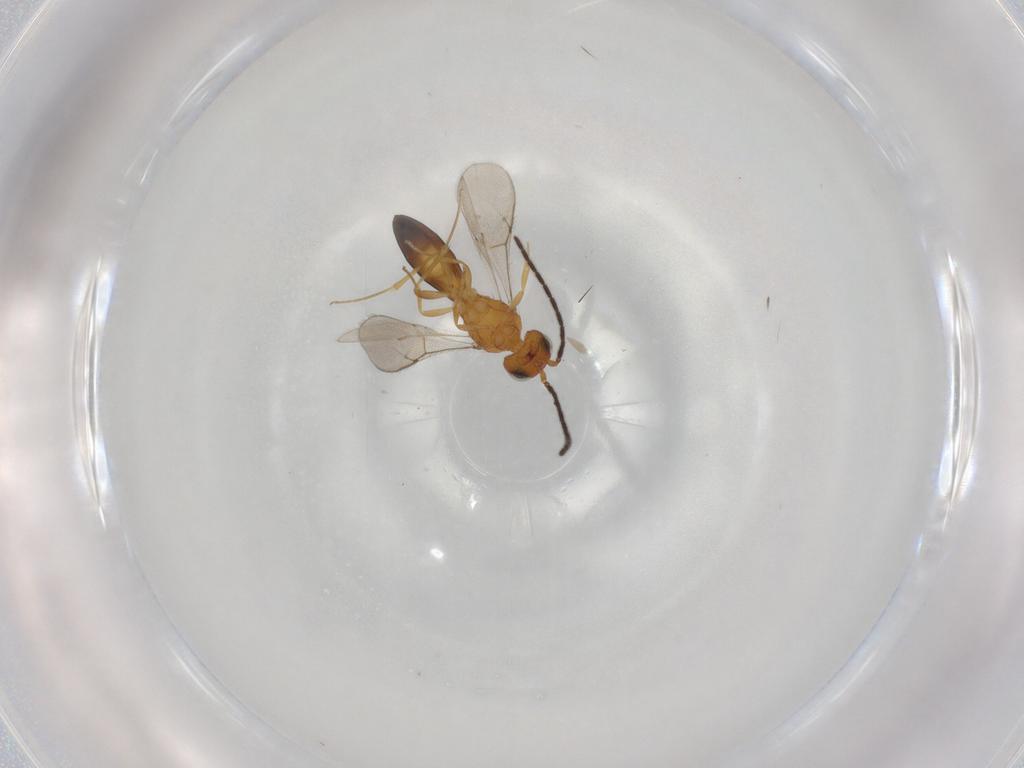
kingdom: Animalia
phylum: Arthropoda
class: Insecta
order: Hymenoptera
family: Scelionidae
